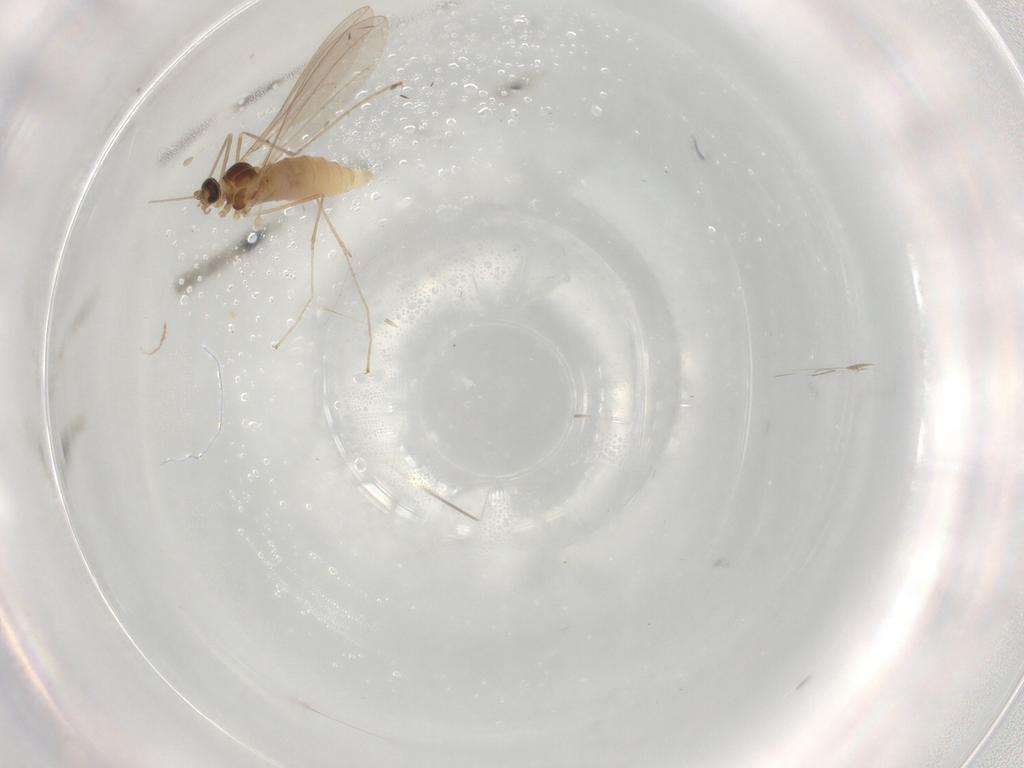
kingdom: Animalia
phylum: Arthropoda
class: Insecta
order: Diptera
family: Cecidomyiidae
